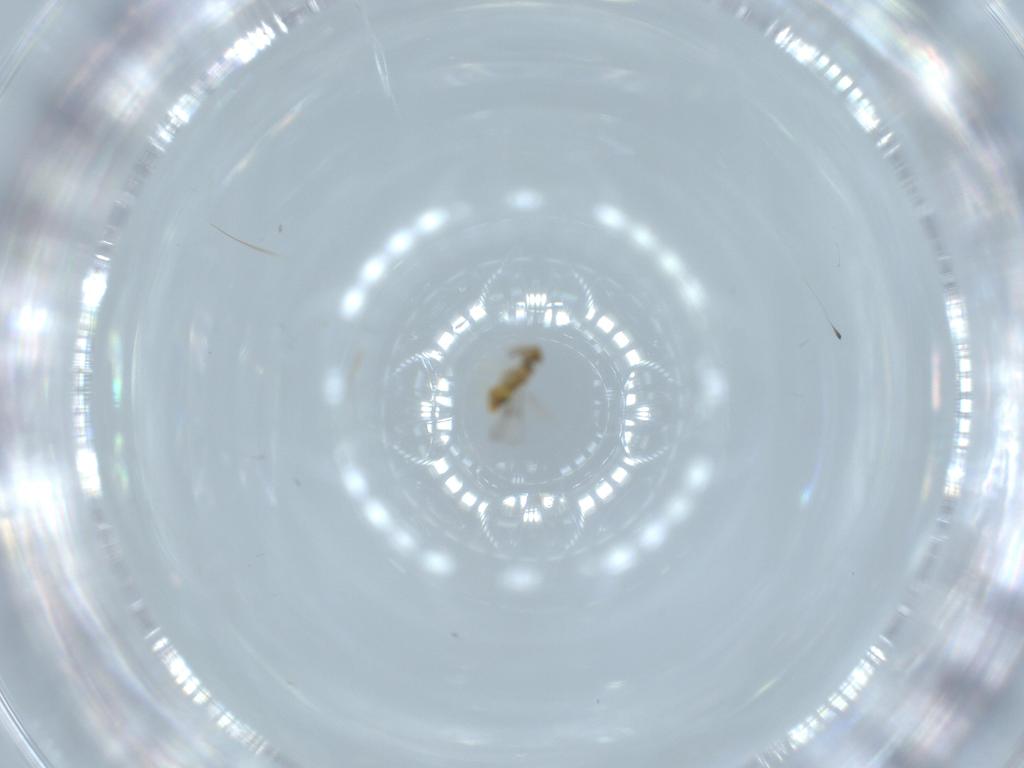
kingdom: Animalia
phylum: Arthropoda
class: Insecta
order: Hymenoptera
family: Aphelinidae
